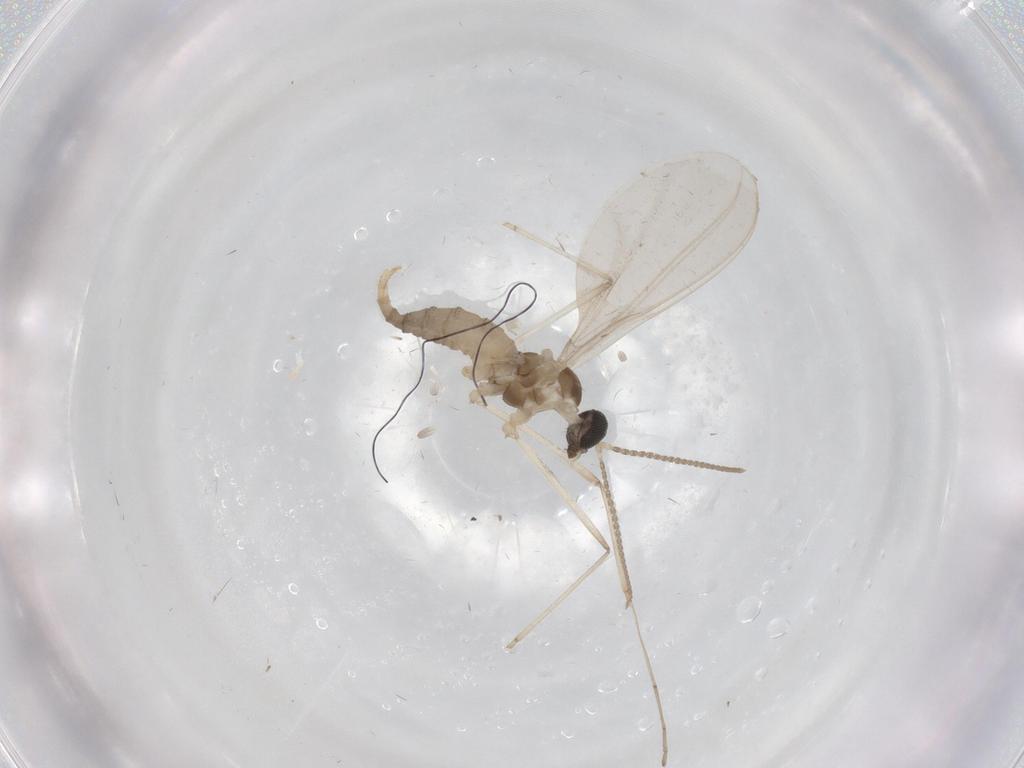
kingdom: Animalia
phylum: Arthropoda
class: Insecta
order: Diptera
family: Cecidomyiidae
